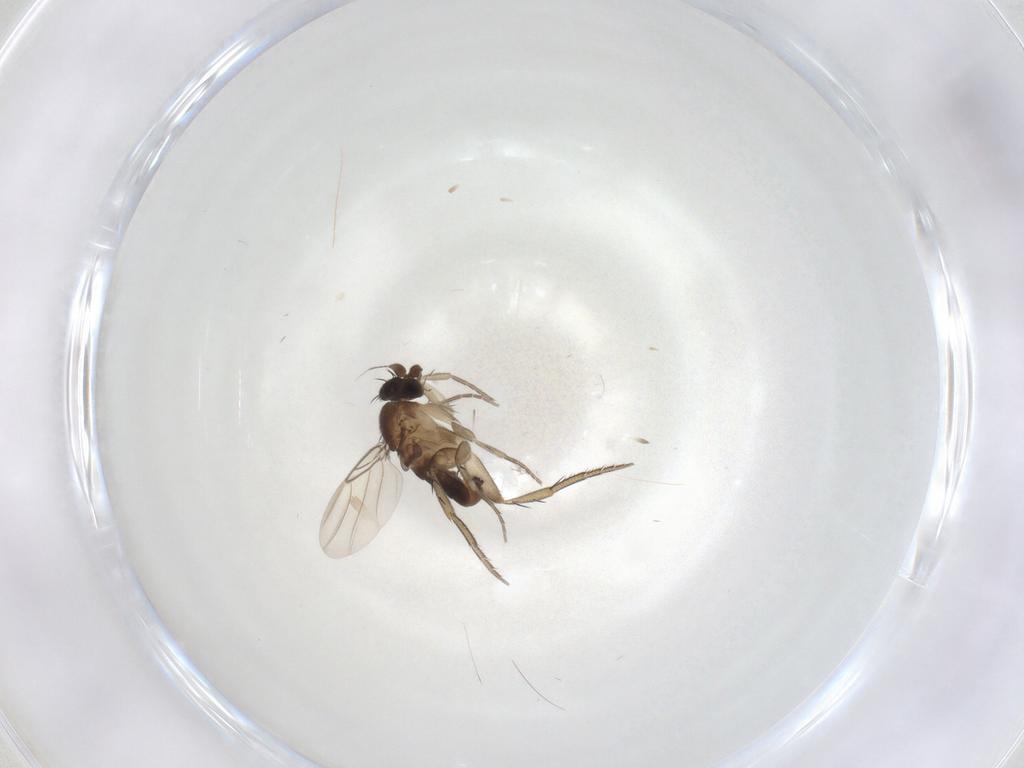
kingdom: Animalia
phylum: Arthropoda
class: Insecta
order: Diptera
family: Phoridae
